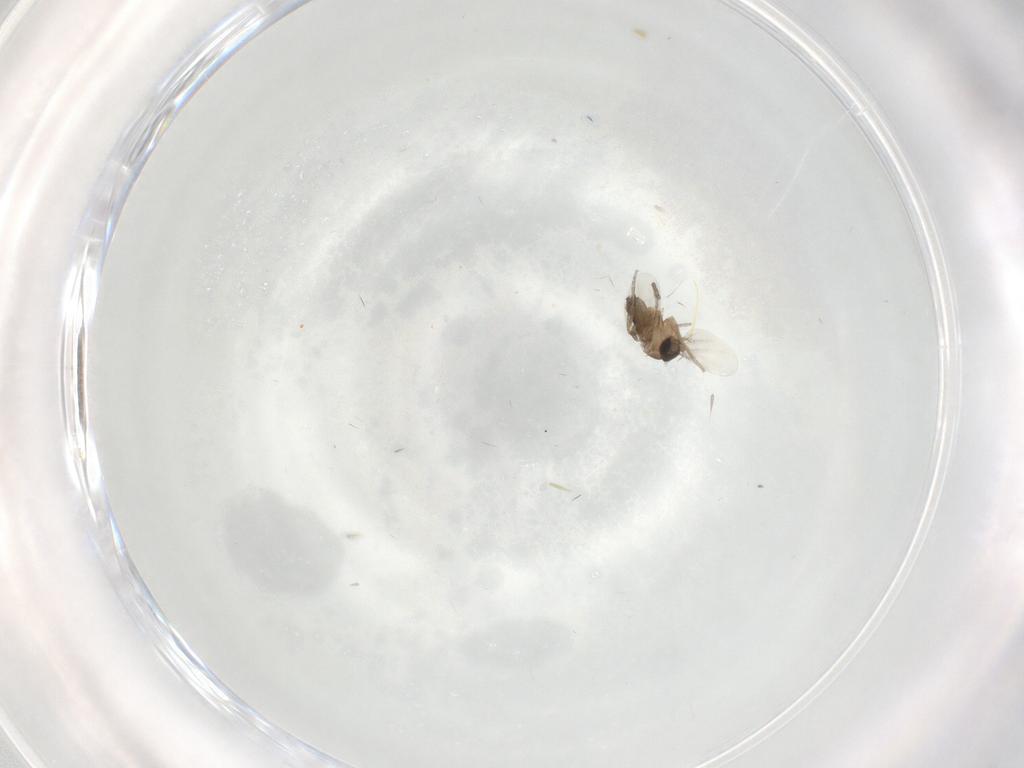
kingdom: Animalia
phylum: Arthropoda
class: Insecta
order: Diptera
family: Phoridae
